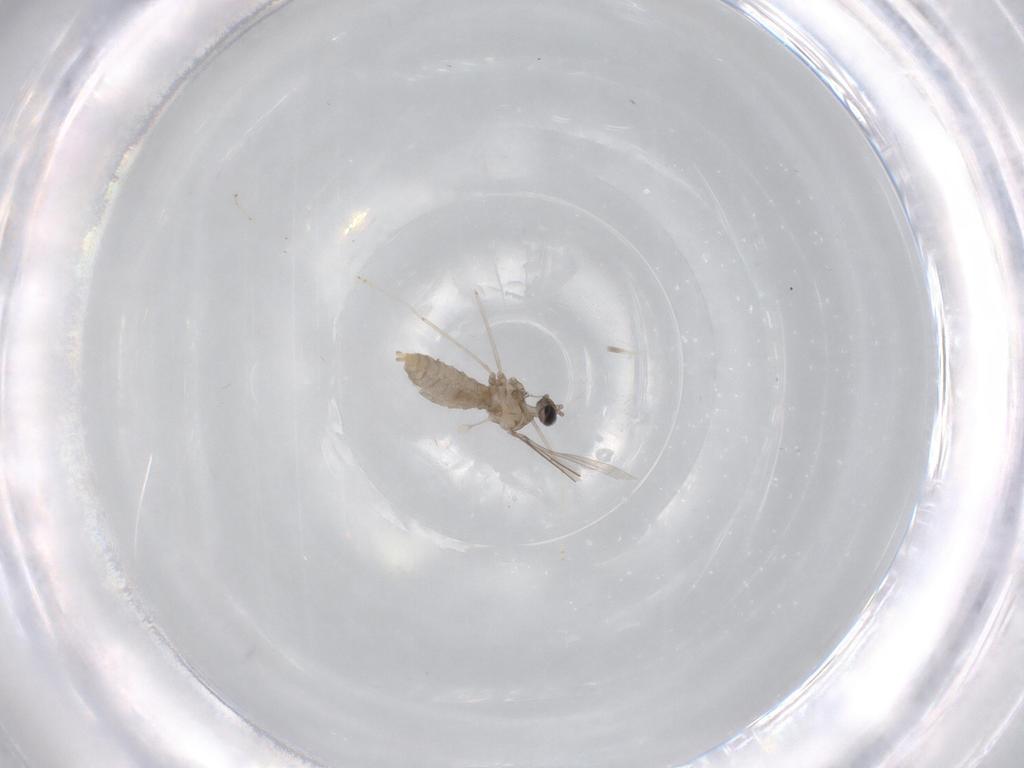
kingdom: Animalia
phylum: Arthropoda
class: Insecta
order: Diptera
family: Cecidomyiidae
